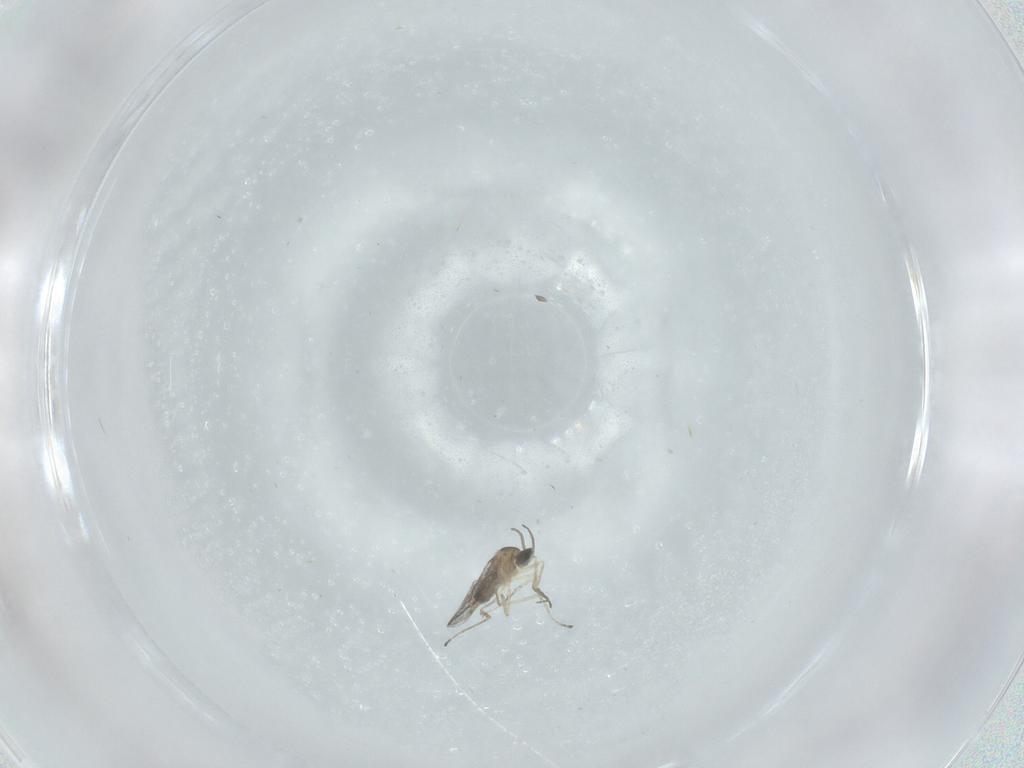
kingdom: Animalia
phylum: Arthropoda
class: Insecta
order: Diptera
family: Cecidomyiidae
